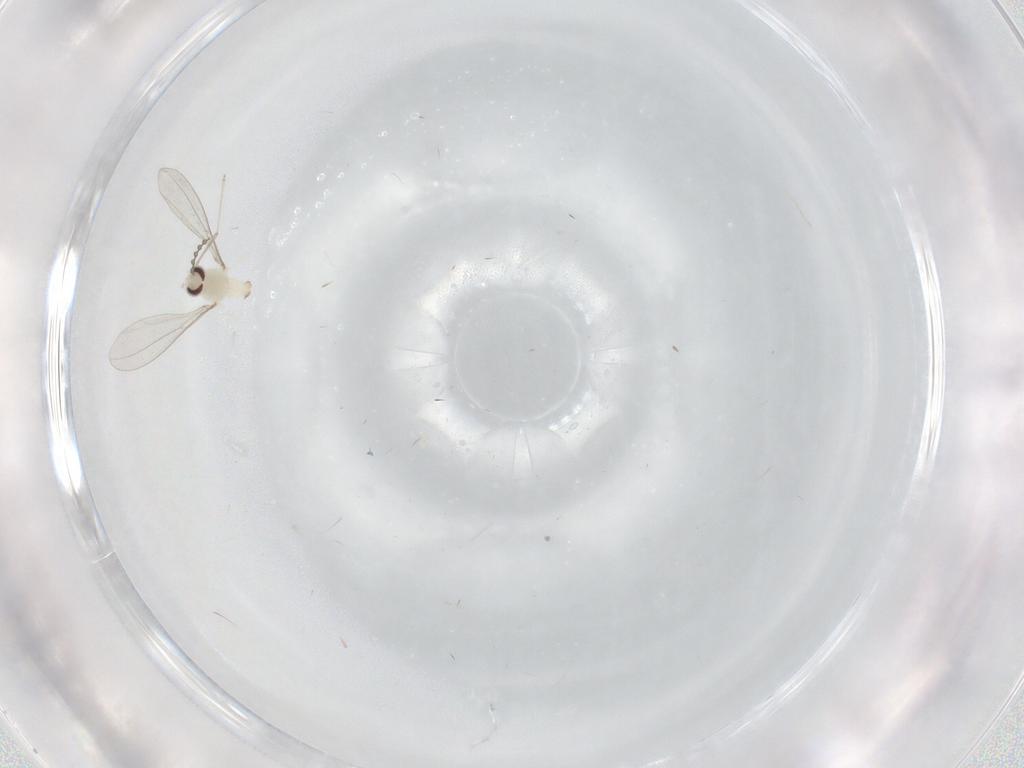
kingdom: Animalia
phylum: Arthropoda
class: Insecta
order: Diptera
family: Cecidomyiidae
